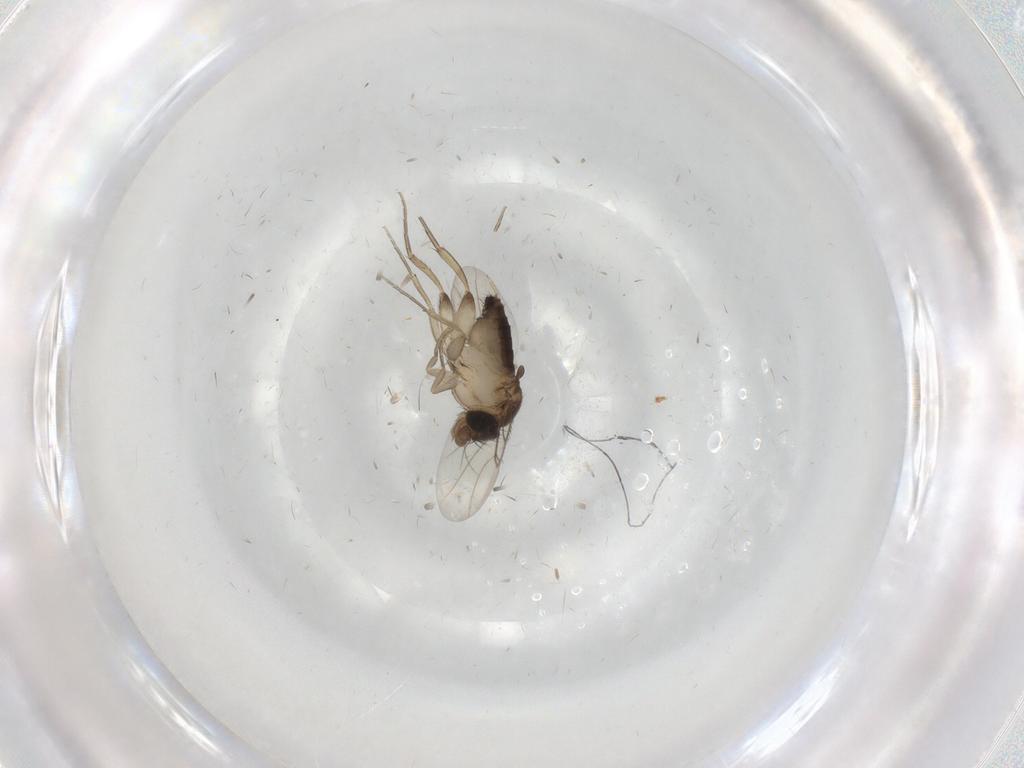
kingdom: Animalia
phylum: Arthropoda
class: Insecta
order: Diptera
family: Phoridae
